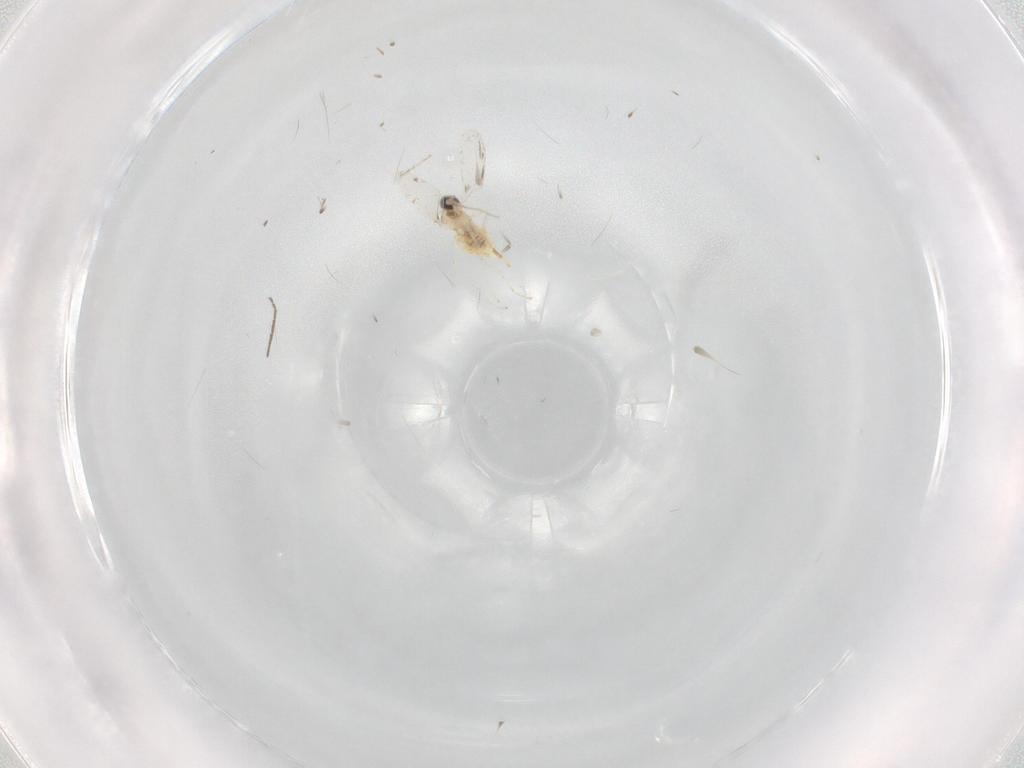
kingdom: Animalia
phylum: Arthropoda
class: Insecta
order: Diptera
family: Cecidomyiidae
